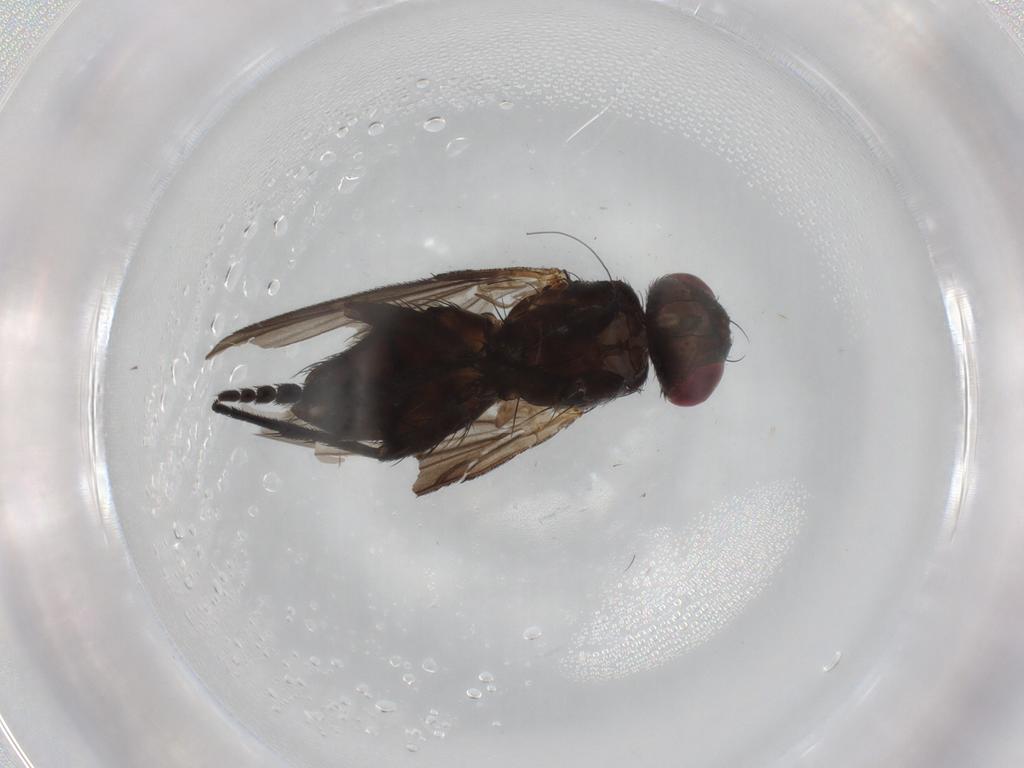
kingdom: Animalia
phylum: Arthropoda
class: Insecta
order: Diptera
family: Tachinidae
